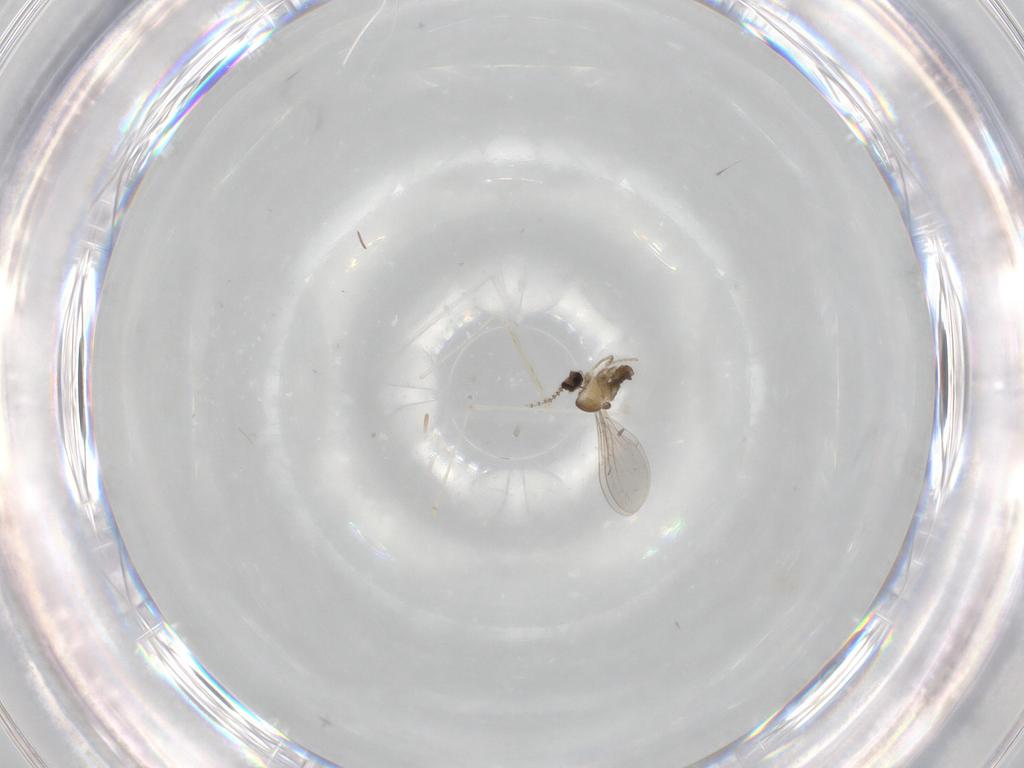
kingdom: Animalia
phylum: Arthropoda
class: Insecta
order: Diptera
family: Cecidomyiidae
